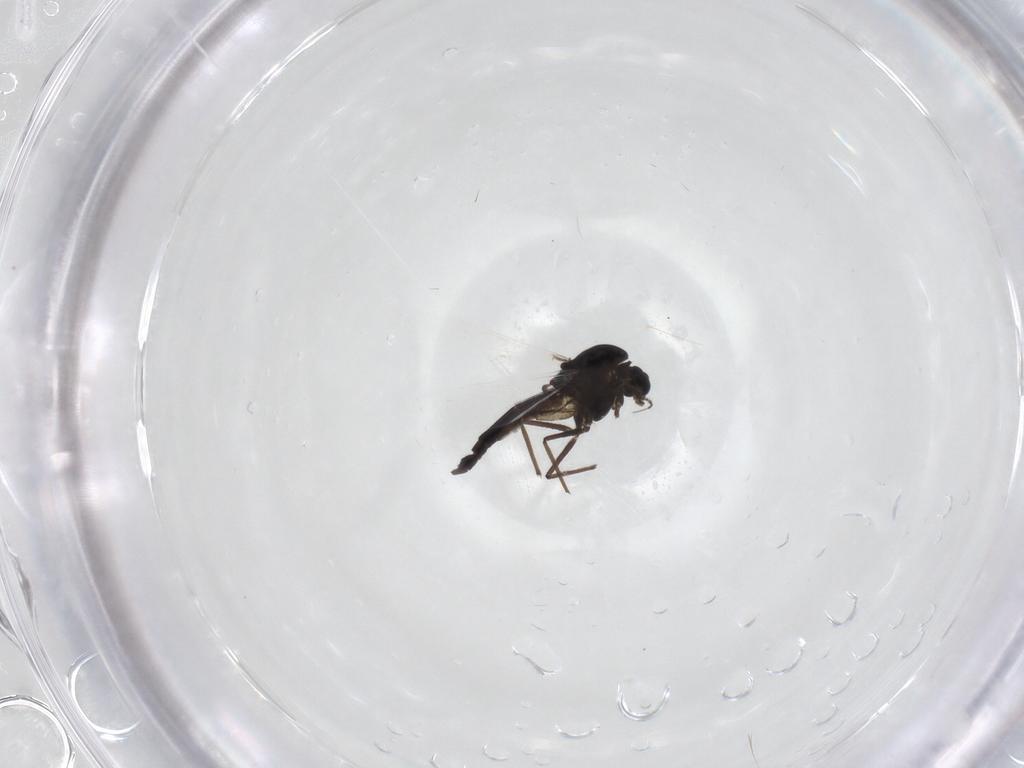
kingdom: Animalia
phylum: Arthropoda
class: Insecta
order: Diptera
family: Chironomidae
